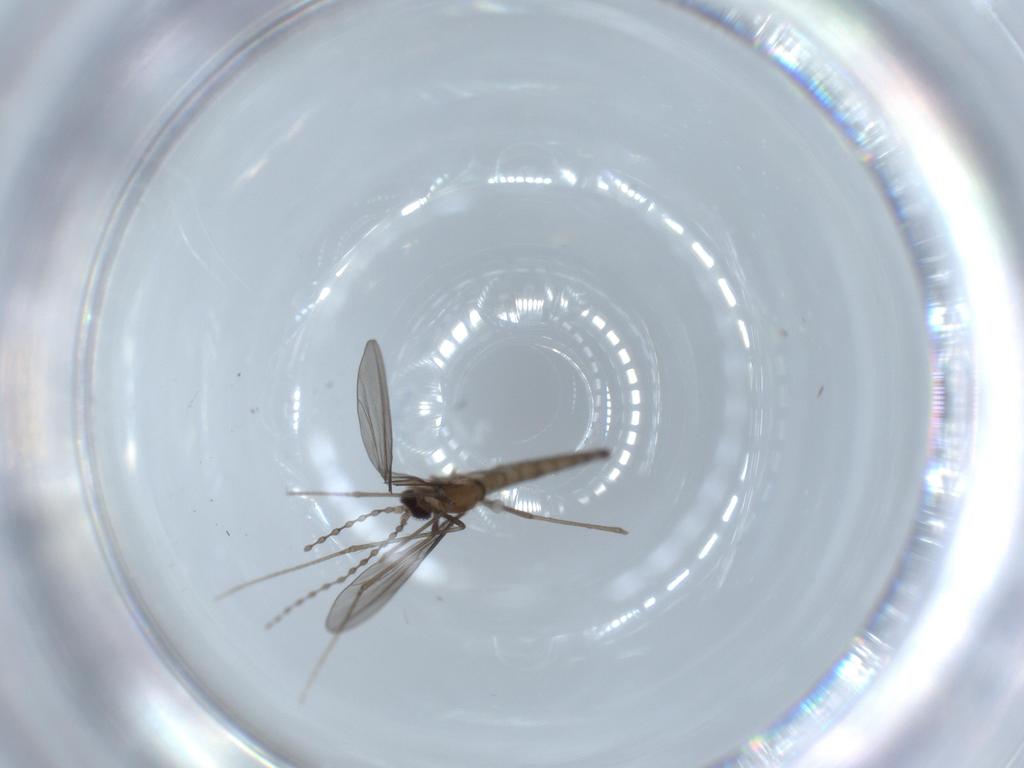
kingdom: Animalia
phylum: Arthropoda
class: Insecta
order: Diptera
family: Cecidomyiidae
